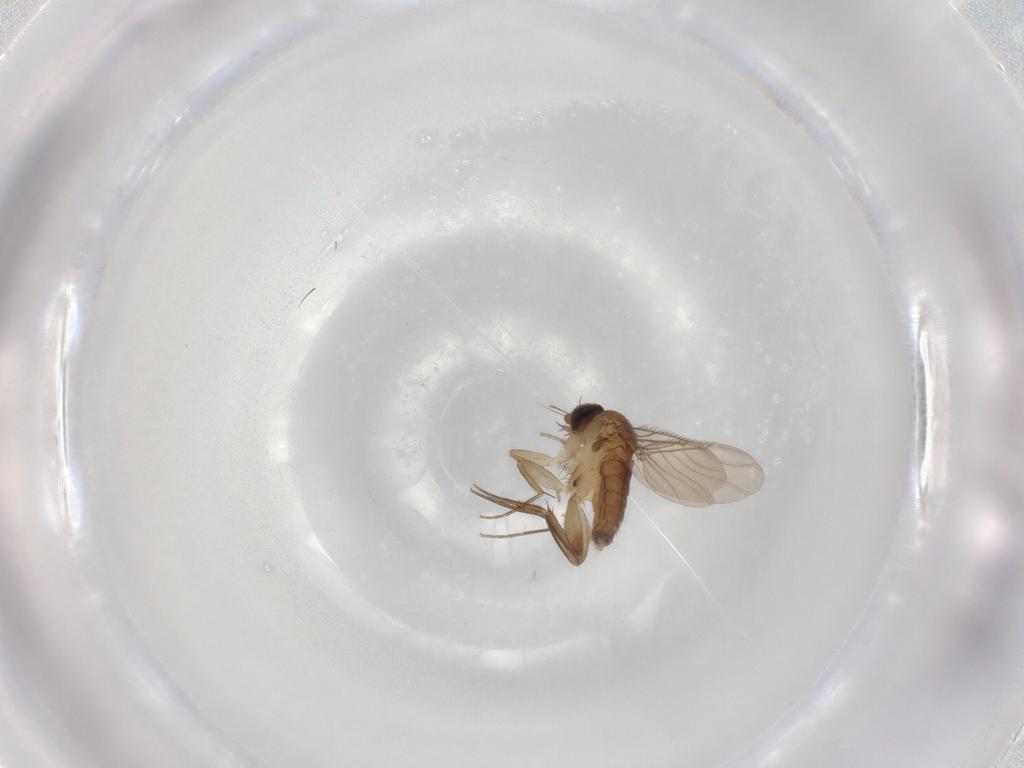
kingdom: Animalia
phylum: Arthropoda
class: Insecta
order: Diptera
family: Phoridae
